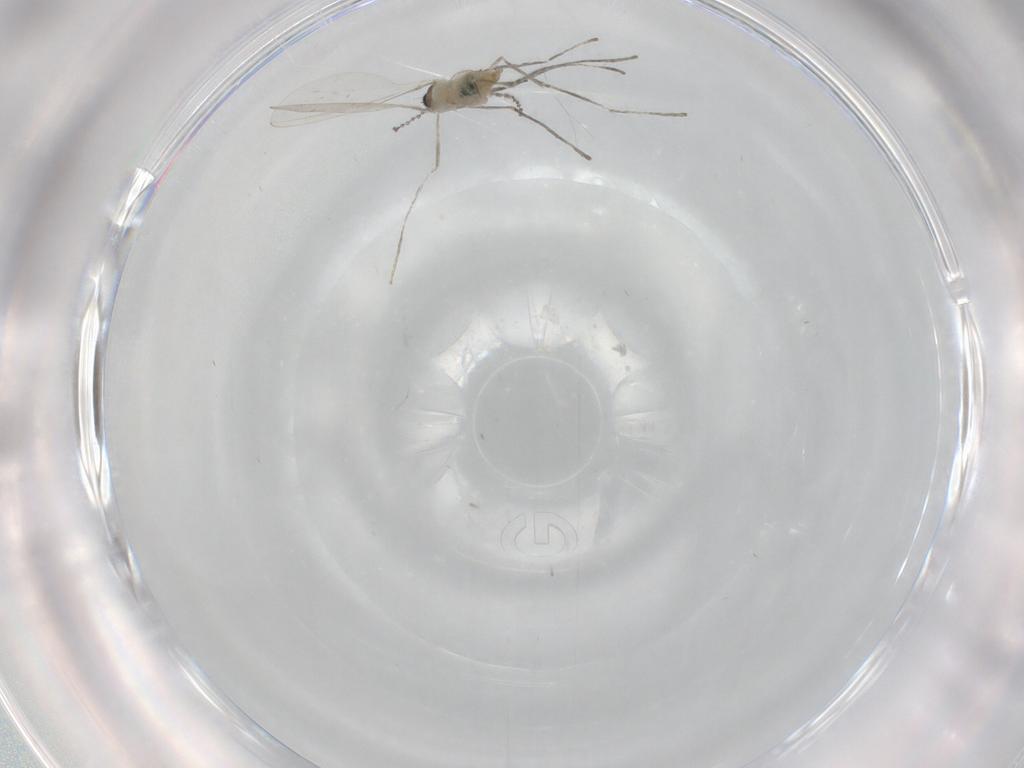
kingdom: Animalia
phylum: Arthropoda
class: Insecta
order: Diptera
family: Cecidomyiidae
